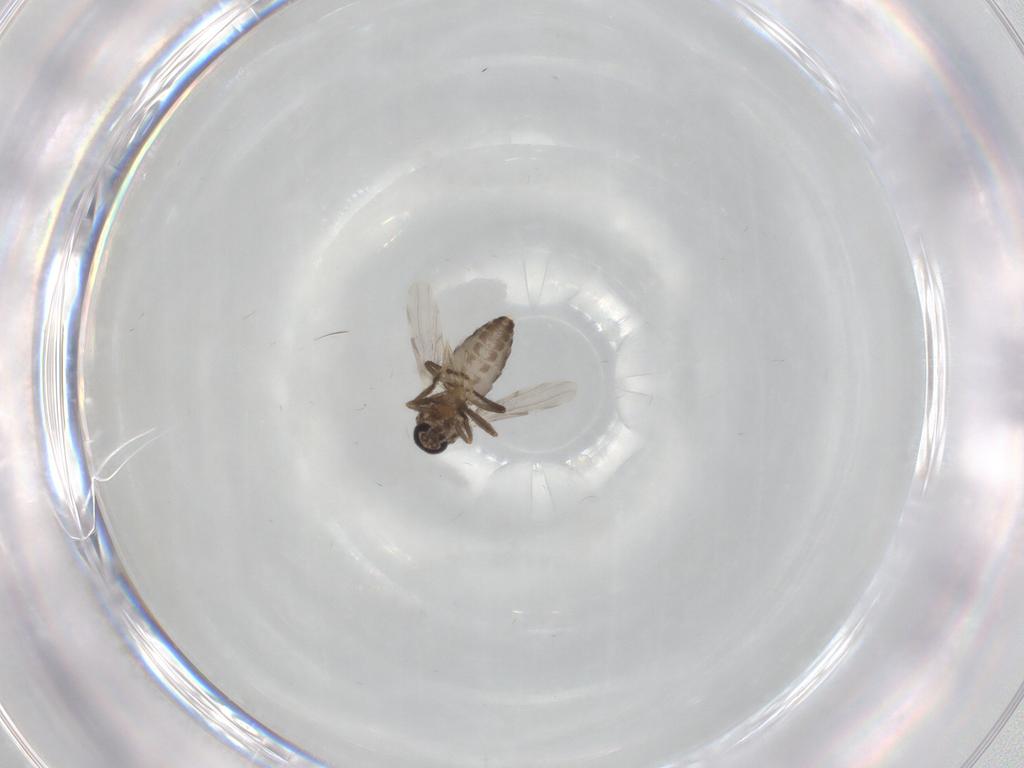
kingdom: Animalia
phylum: Arthropoda
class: Insecta
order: Diptera
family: Ceratopogonidae
